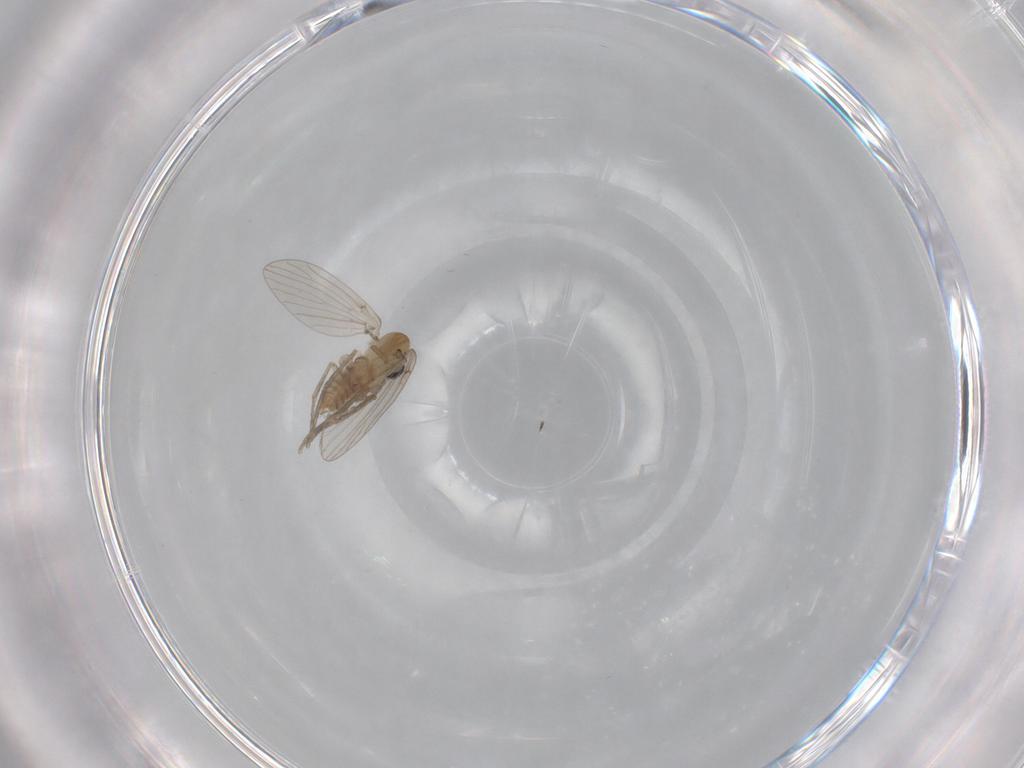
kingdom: Animalia
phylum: Arthropoda
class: Insecta
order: Diptera
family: Psychodidae
